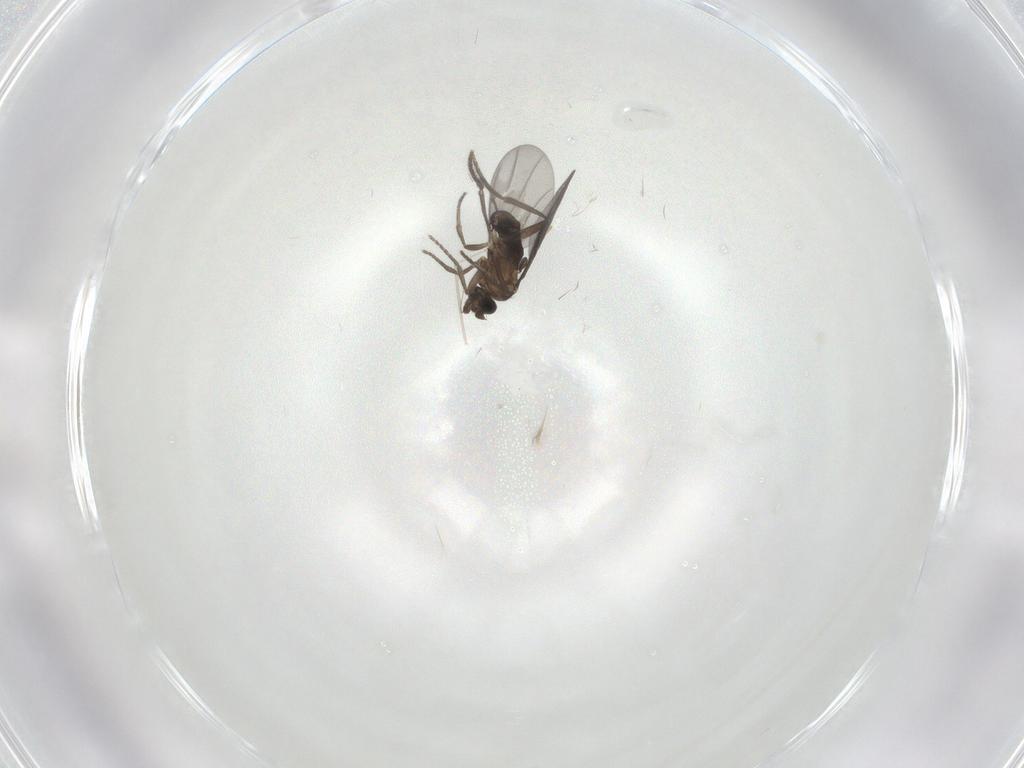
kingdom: Animalia
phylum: Arthropoda
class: Insecta
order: Diptera
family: Phoridae
